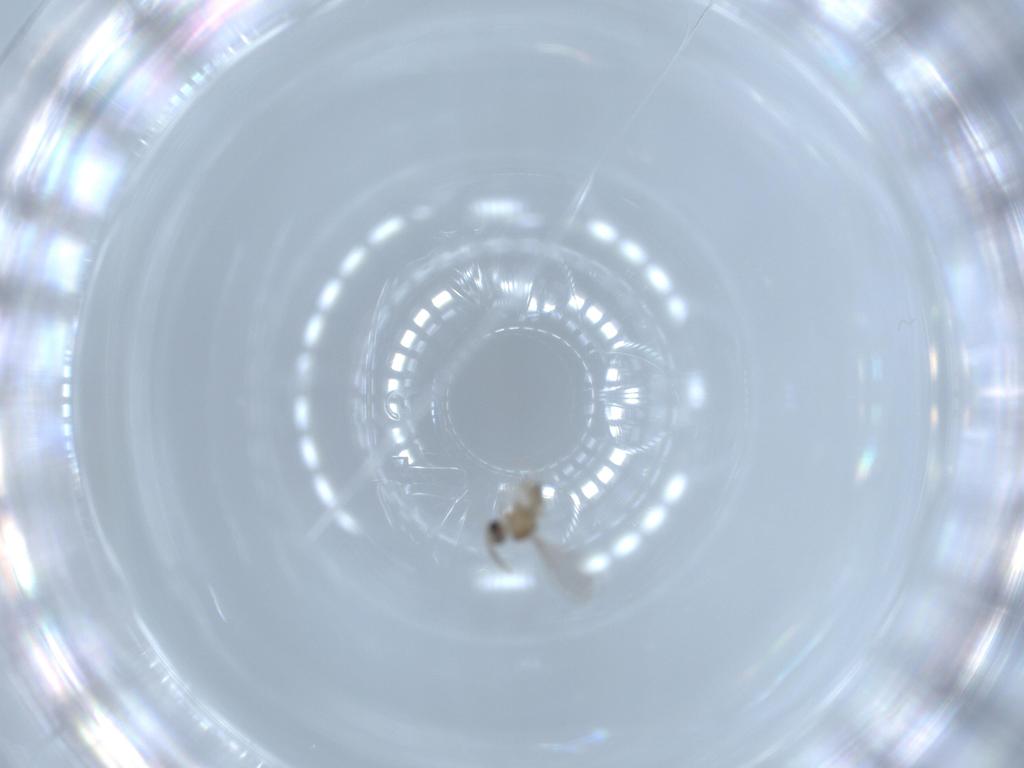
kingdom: Animalia
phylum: Arthropoda
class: Insecta
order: Diptera
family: Cecidomyiidae
